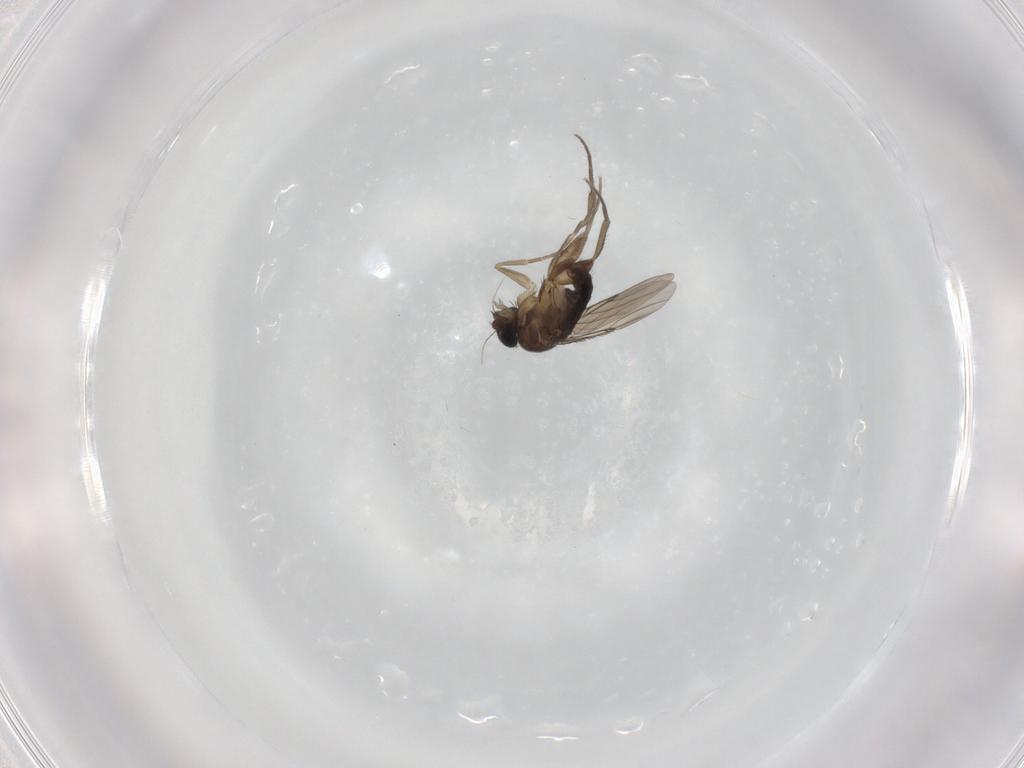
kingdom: Animalia
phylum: Arthropoda
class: Insecta
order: Diptera
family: Phoridae
